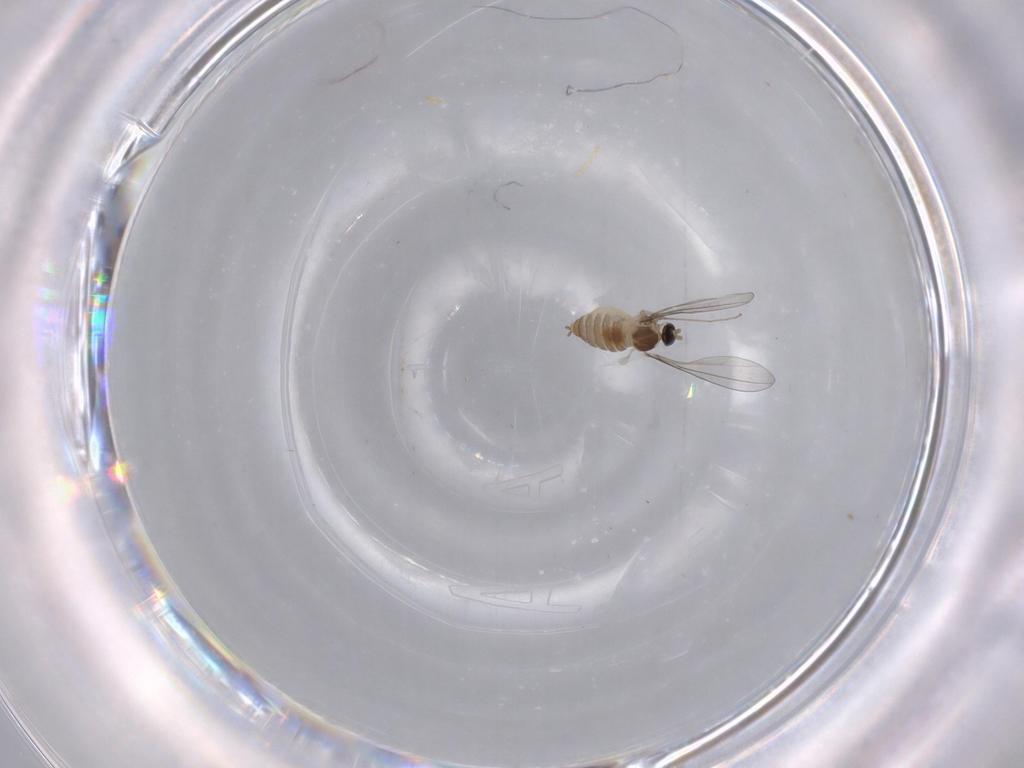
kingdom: Animalia
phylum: Arthropoda
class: Insecta
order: Diptera
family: Cecidomyiidae
